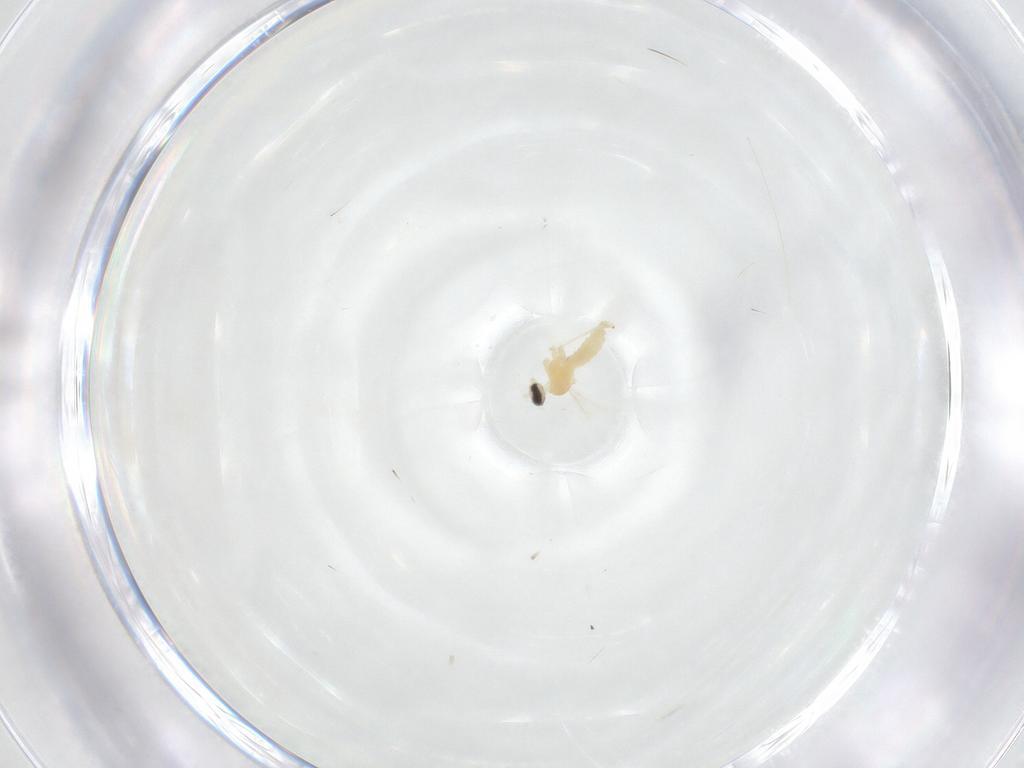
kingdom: Animalia
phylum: Arthropoda
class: Insecta
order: Diptera
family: Cecidomyiidae
